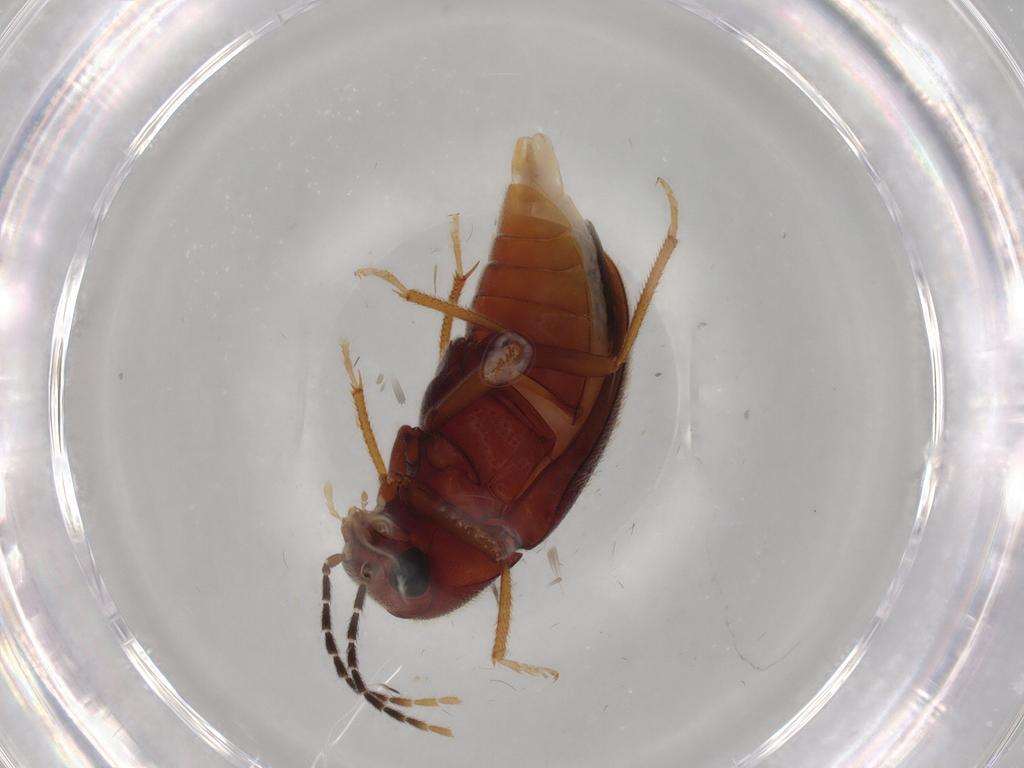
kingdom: Animalia
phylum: Arthropoda
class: Insecta
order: Coleoptera
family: Ptilodactylidae
